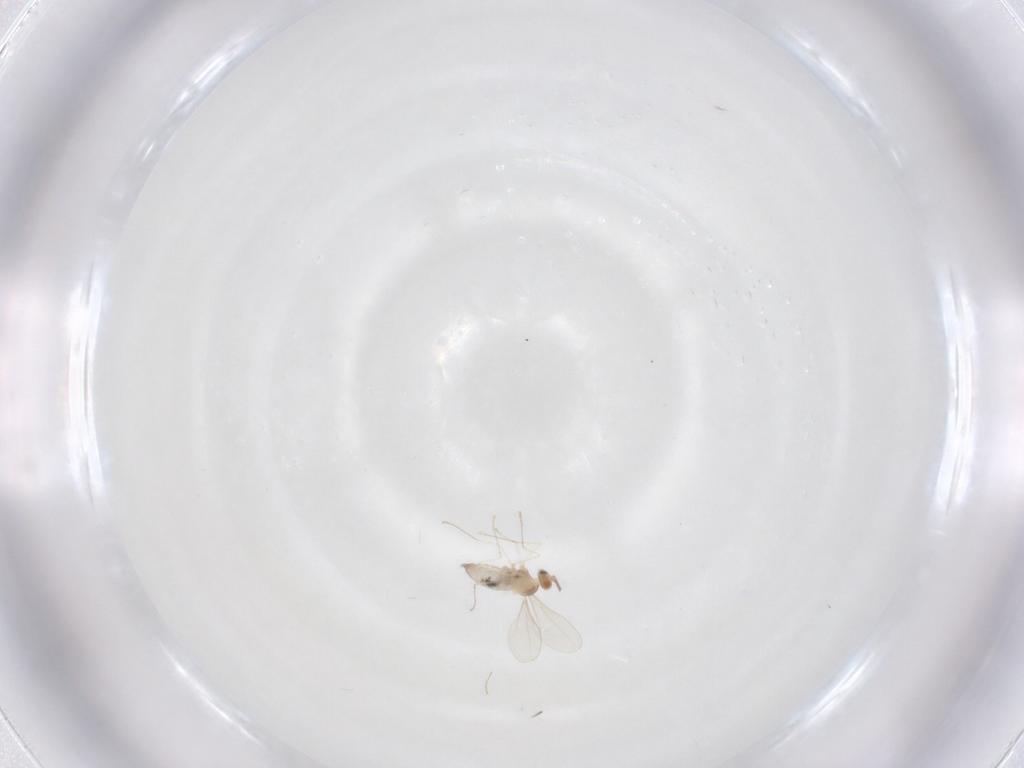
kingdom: Animalia
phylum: Arthropoda
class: Insecta
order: Diptera
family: Cecidomyiidae
